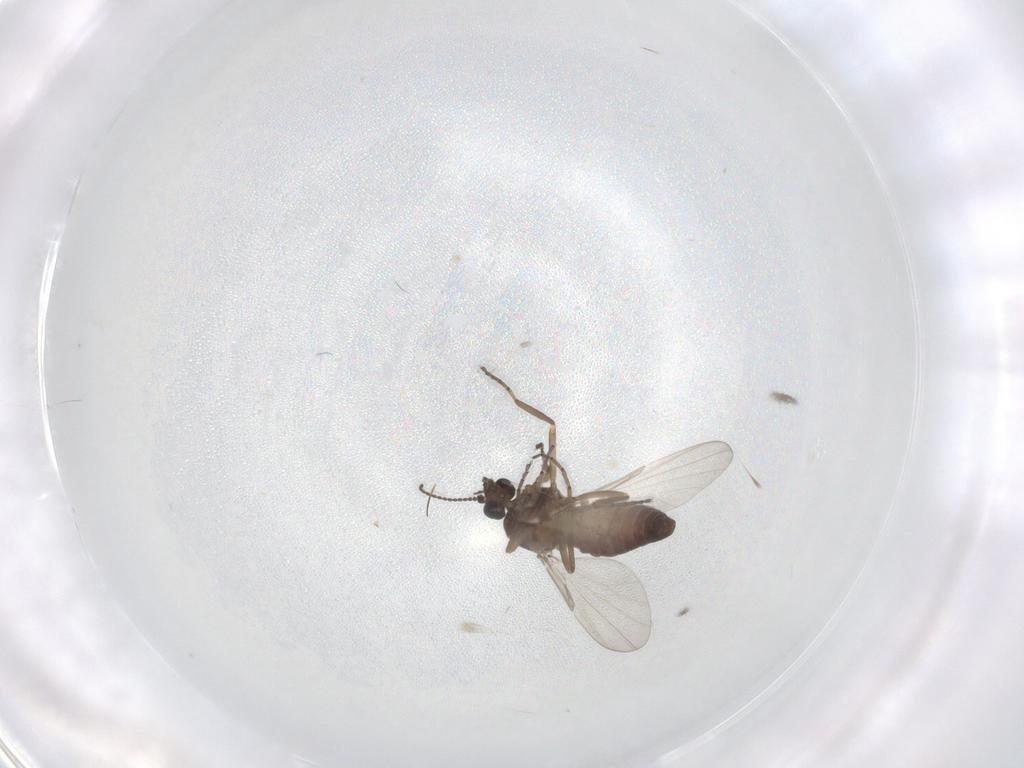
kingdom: Animalia
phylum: Arthropoda
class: Insecta
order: Diptera
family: Ceratopogonidae
